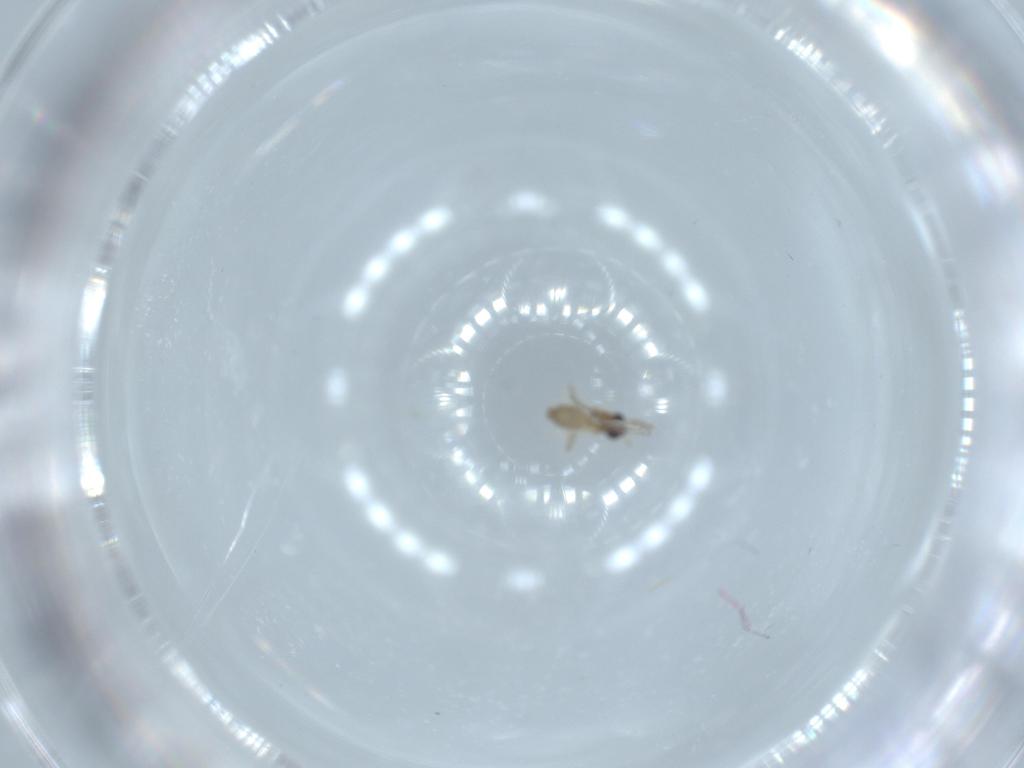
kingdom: Animalia
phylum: Arthropoda
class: Insecta
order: Diptera
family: Cecidomyiidae
